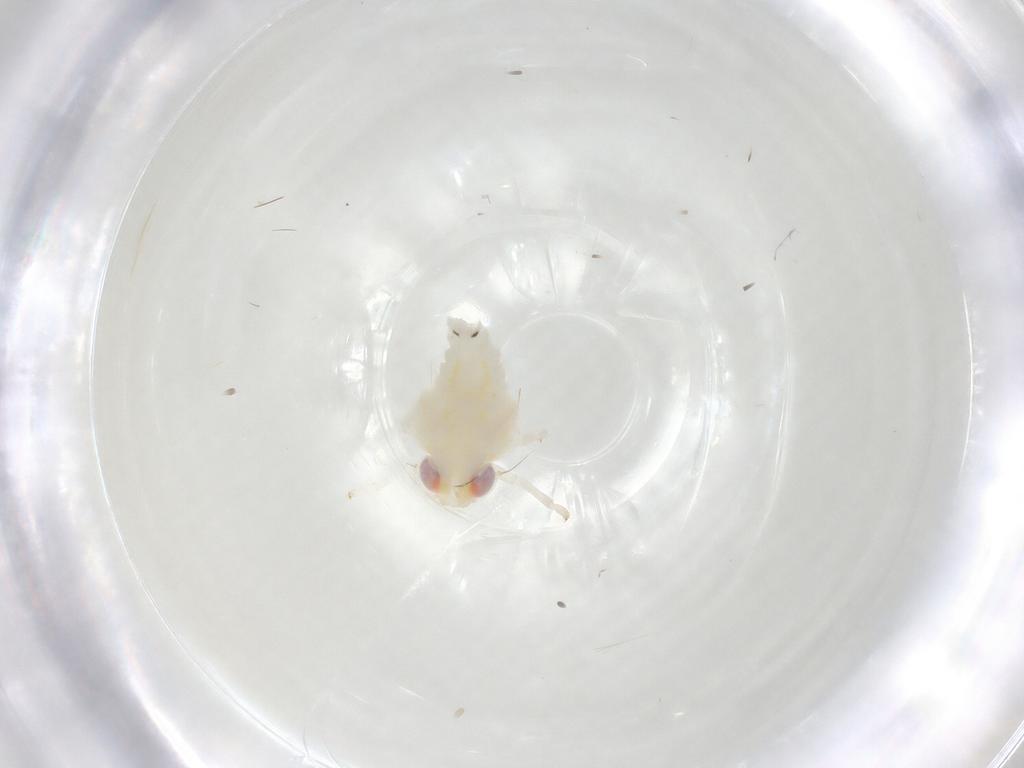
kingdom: Animalia
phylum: Arthropoda
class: Insecta
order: Hemiptera
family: Nogodinidae
